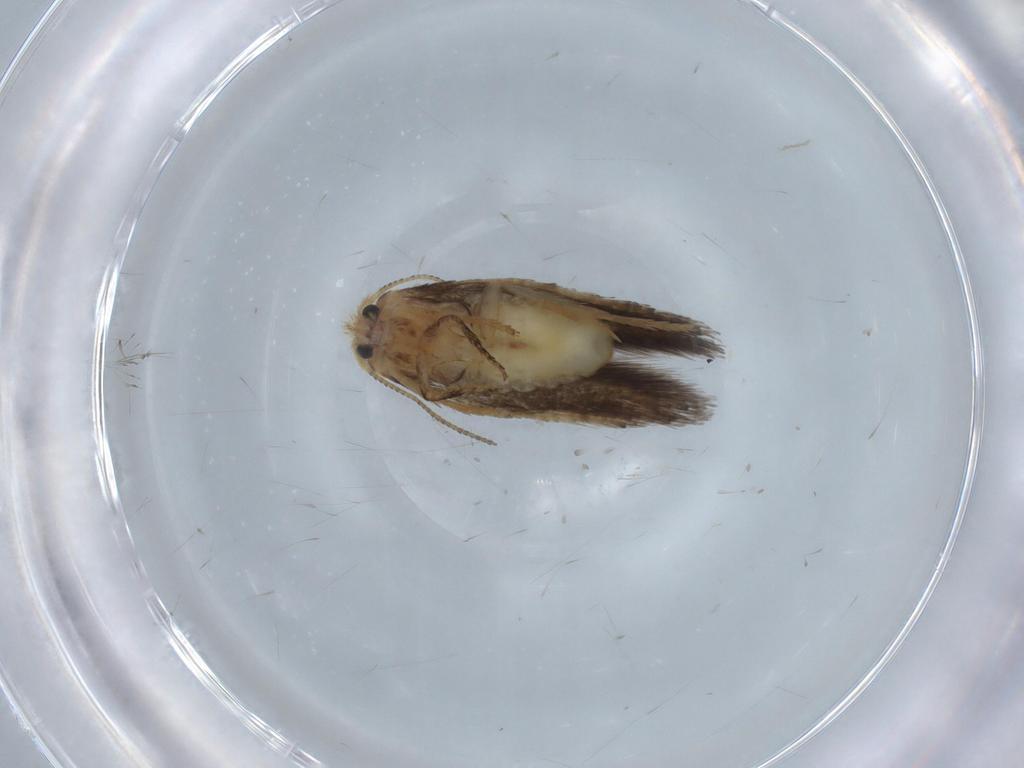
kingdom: Animalia
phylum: Arthropoda
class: Insecta
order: Lepidoptera
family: Nepticulidae
